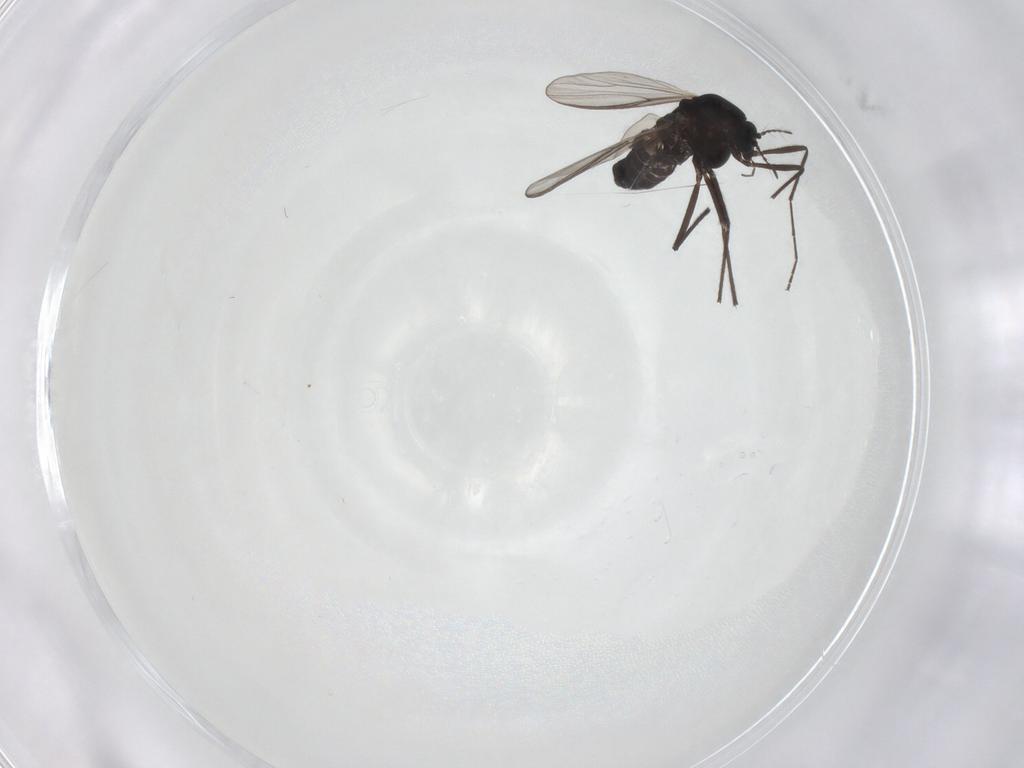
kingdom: Animalia
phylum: Arthropoda
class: Insecta
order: Diptera
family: Chironomidae
